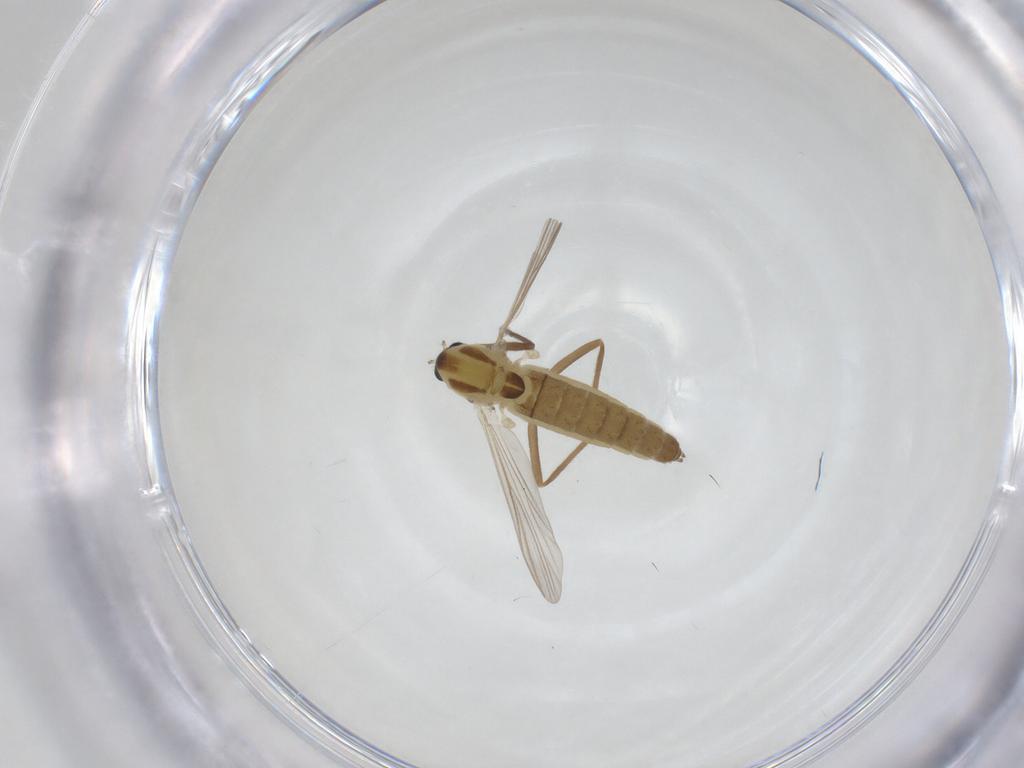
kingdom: Animalia
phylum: Arthropoda
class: Insecta
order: Diptera
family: Chironomidae
